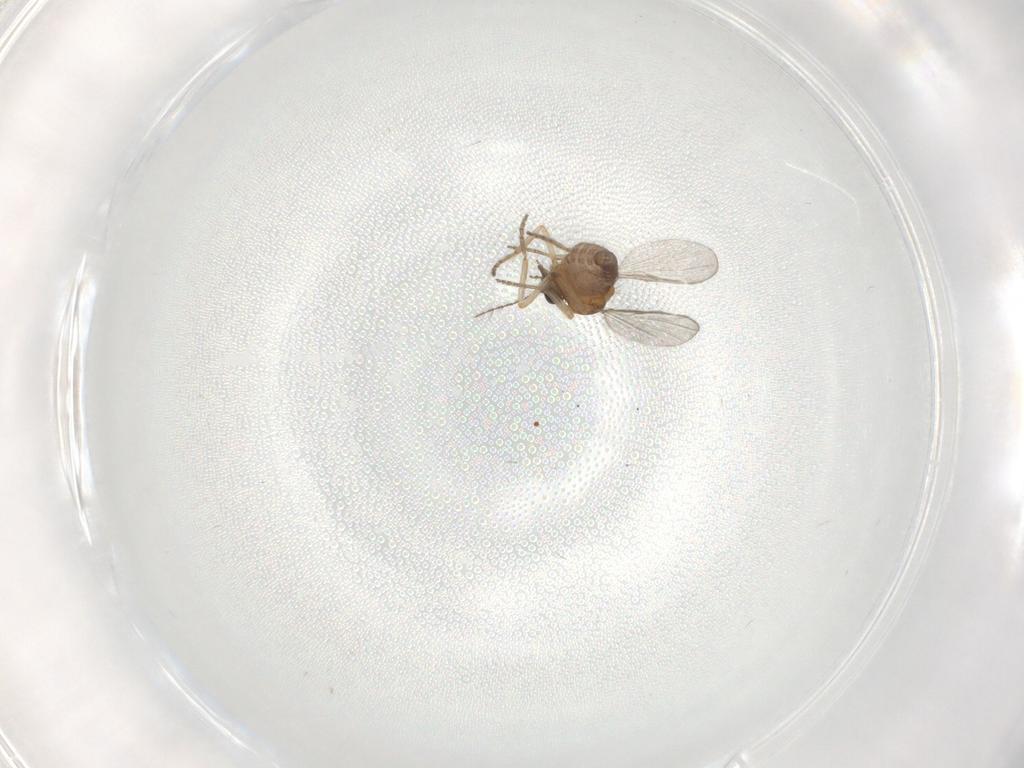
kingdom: Animalia
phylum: Arthropoda
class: Insecta
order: Diptera
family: Ceratopogonidae
